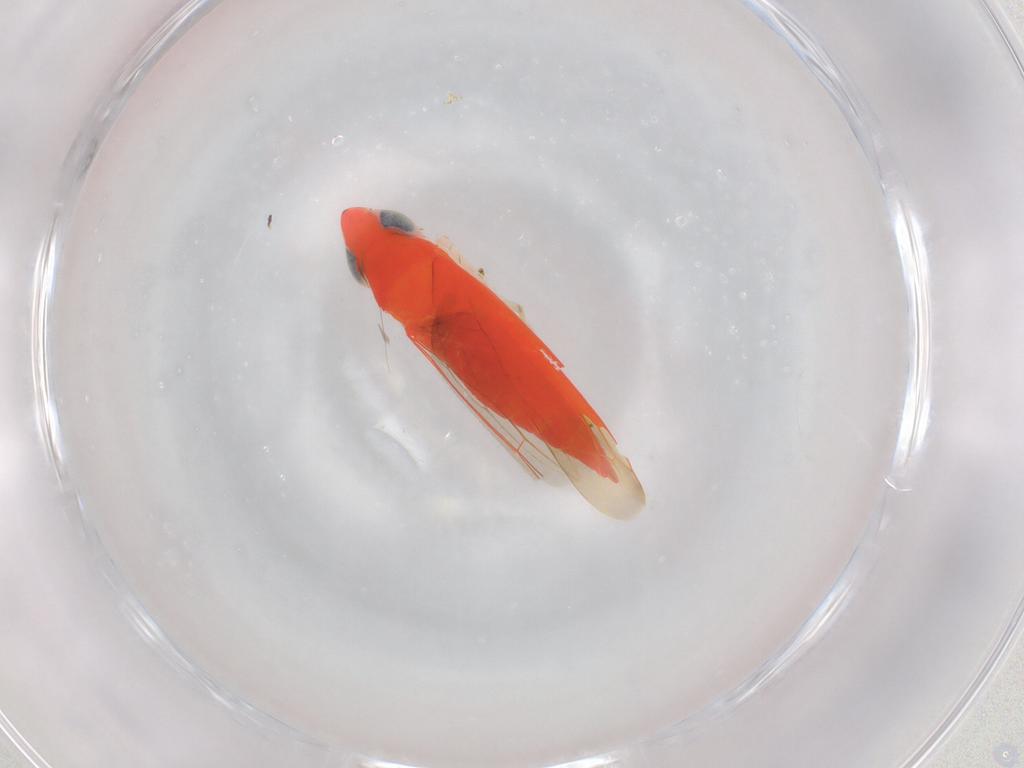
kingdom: Animalia
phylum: Arthropoda
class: Insecta
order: Hemiptera
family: Cicadellidae
